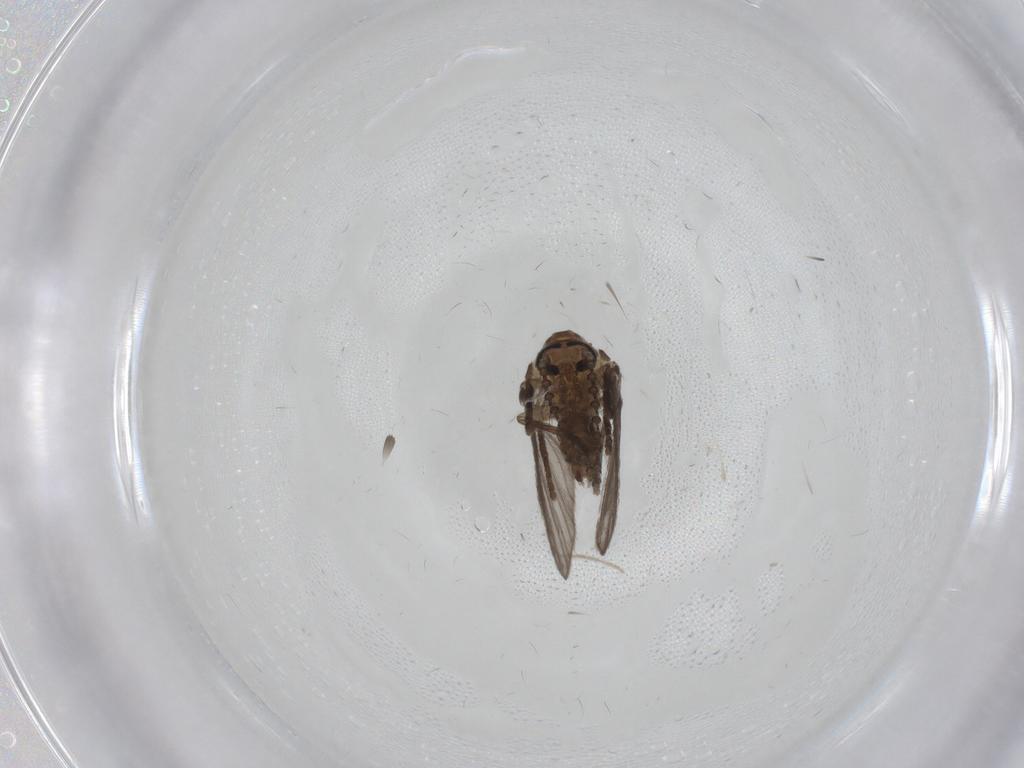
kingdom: Animalia
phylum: Arthropoda
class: Insecta
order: Diptera
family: Psychodidae
